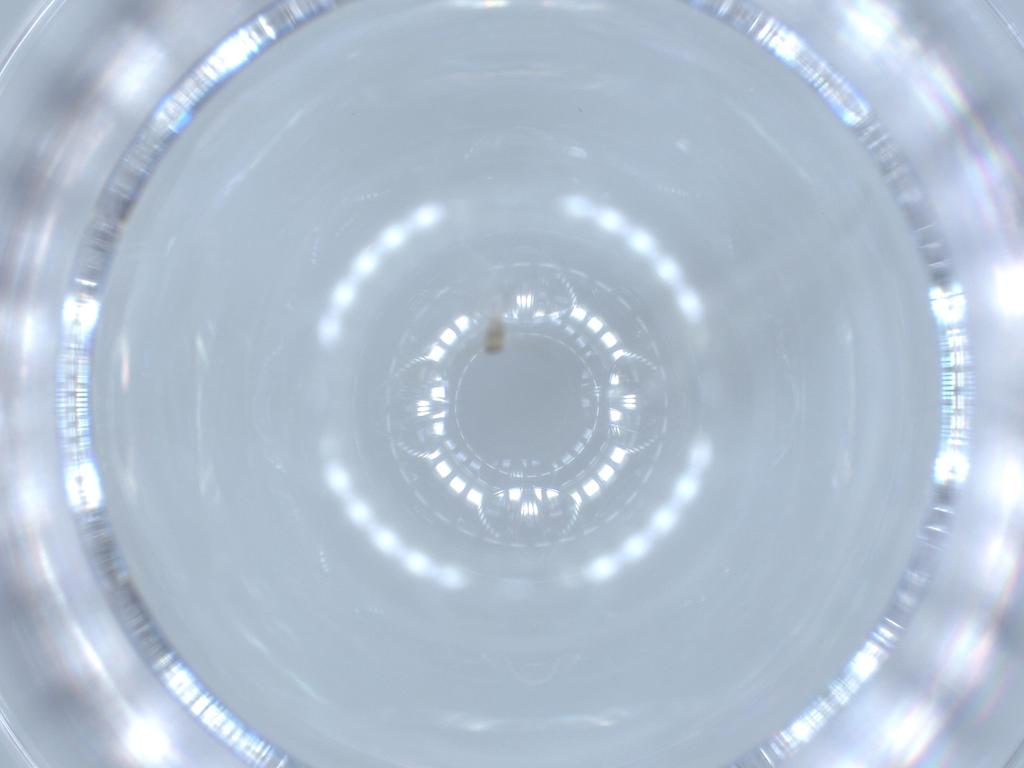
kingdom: Animalia
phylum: Arthropoda
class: Insecta
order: Diptera
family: Cecidomyiidae
